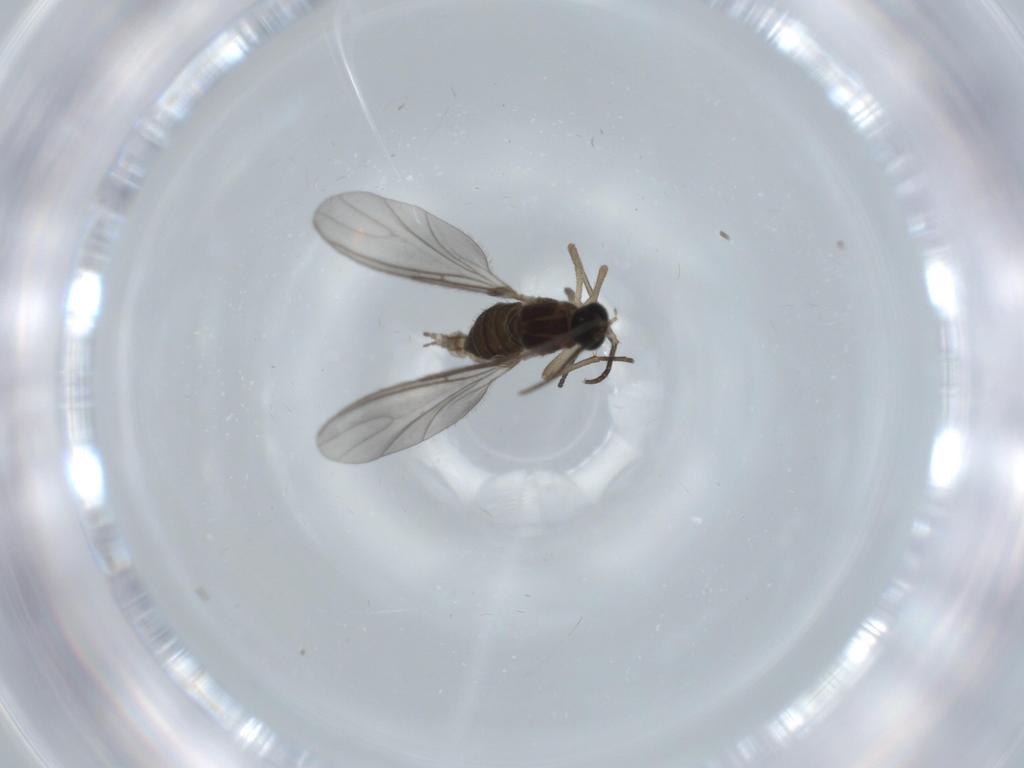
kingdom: Animalia
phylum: Arthropoda
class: Insecta
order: Diptera
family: Sciaridae
